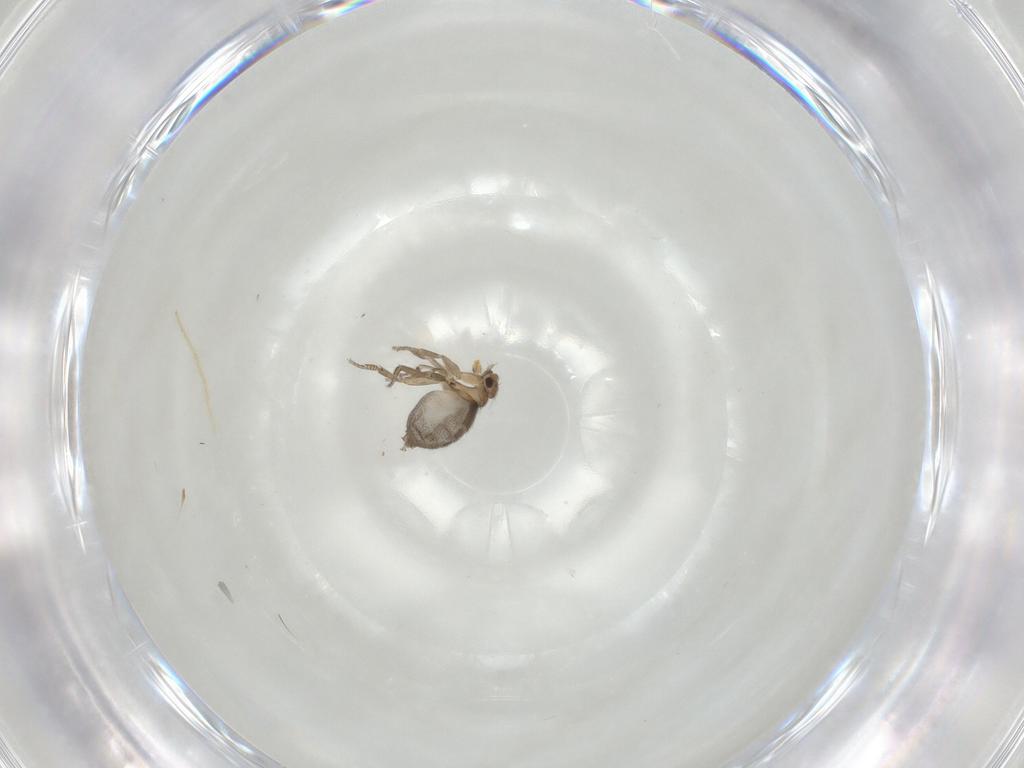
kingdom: Animalia
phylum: Arthropoda
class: Insecta
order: Diptera
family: Chironomidae
